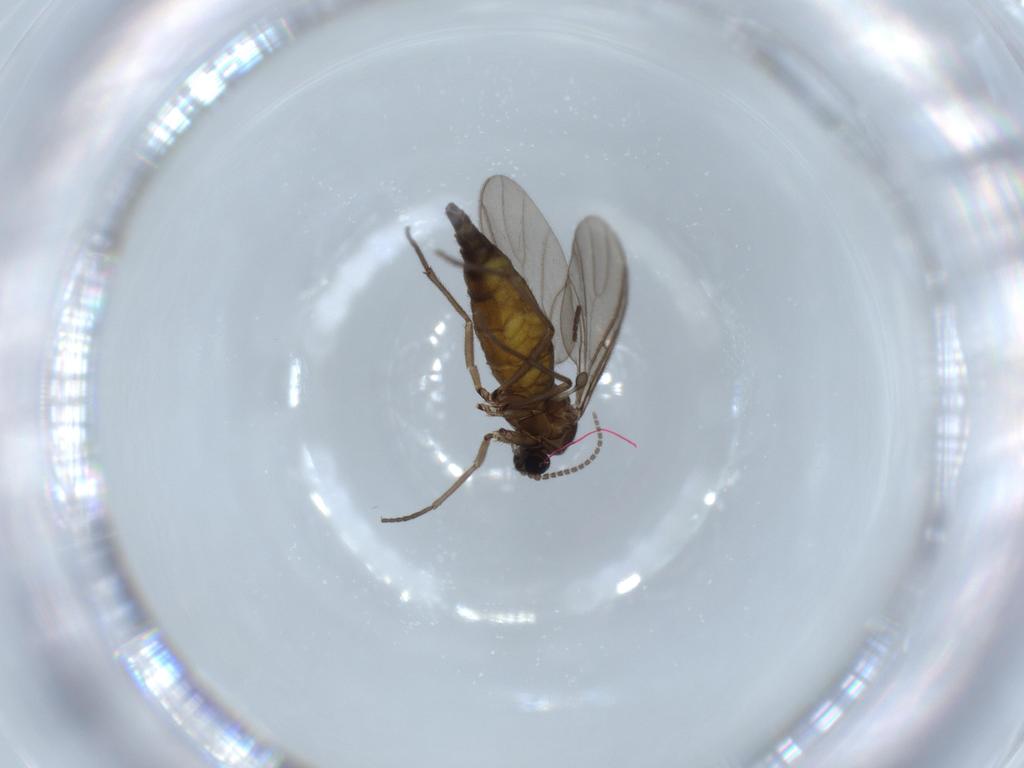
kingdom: Animalia
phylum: Arthropoda
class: Insecta
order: Diptera
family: Sciaridae
